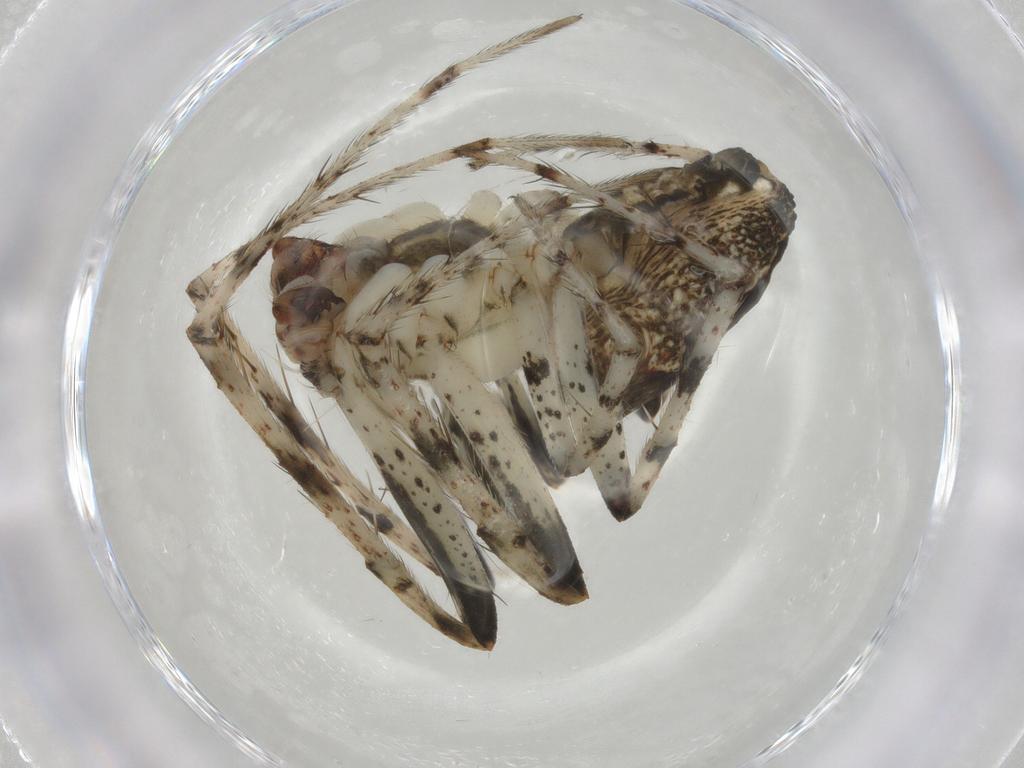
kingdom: Animalia
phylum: Arthropoda
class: Arachnida
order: Araneae
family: Araneidae
